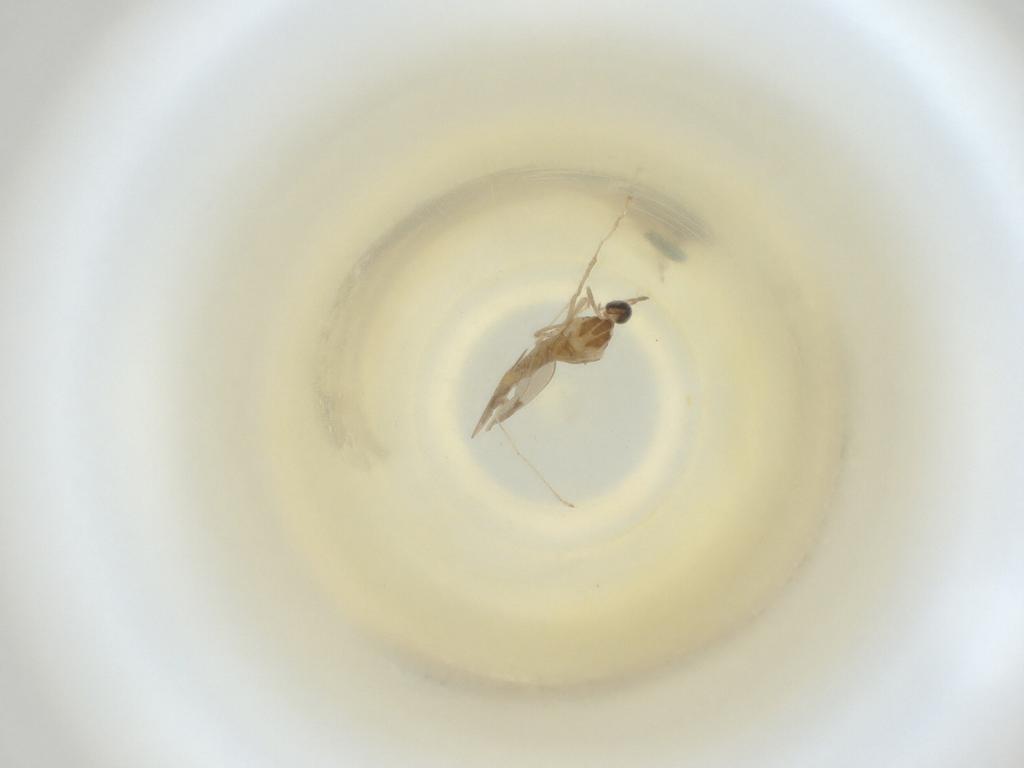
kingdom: Animalia
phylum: Arthropoda
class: Insecta
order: Diptera
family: Cecidomyiidae
